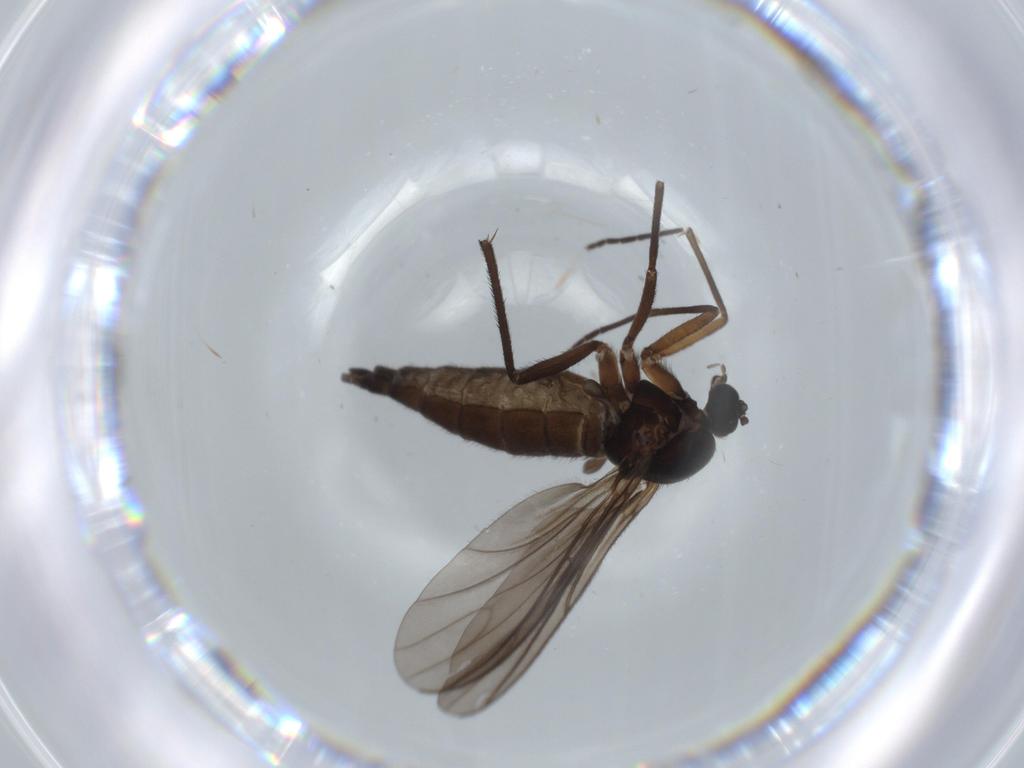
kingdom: Animalia
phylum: Arthropoda
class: Insecta
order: Diptera
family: Sciaridae
